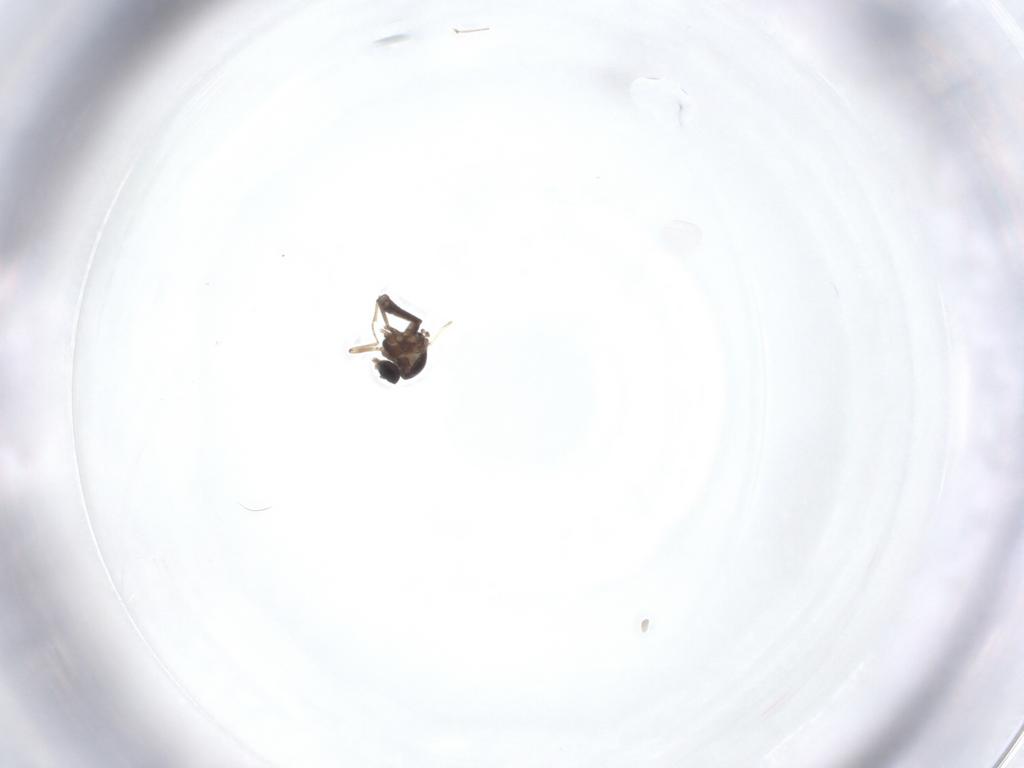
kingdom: Animalia
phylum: Arthropoda
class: Insecta
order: Diptera
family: Ceratopogonidae
